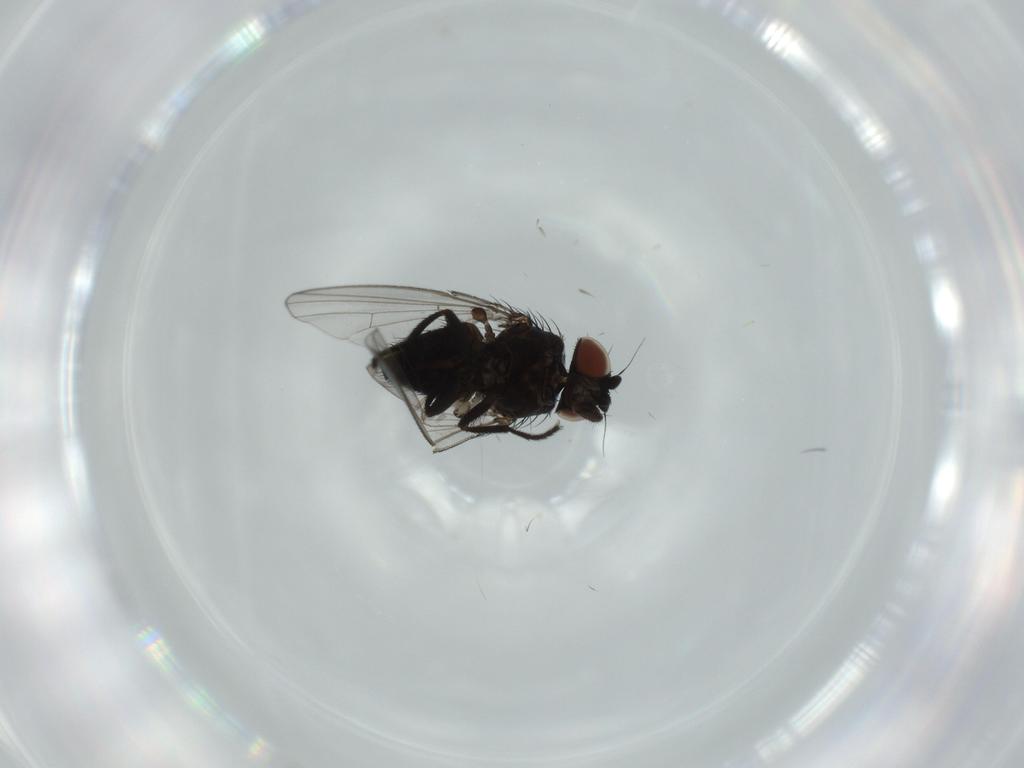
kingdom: Animalia
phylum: Arthropoda
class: Insecta
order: Diptera
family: Milichiidae
